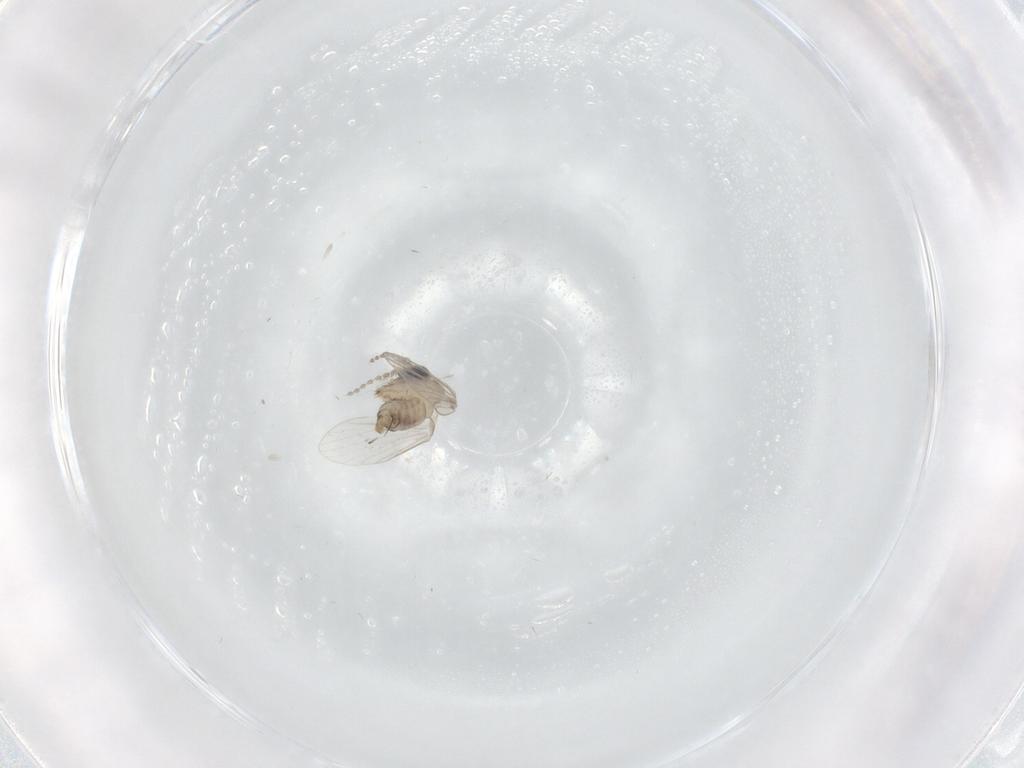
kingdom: Animalia
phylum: Arthropoda
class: Insecta
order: Diptera
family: Psychodidae
